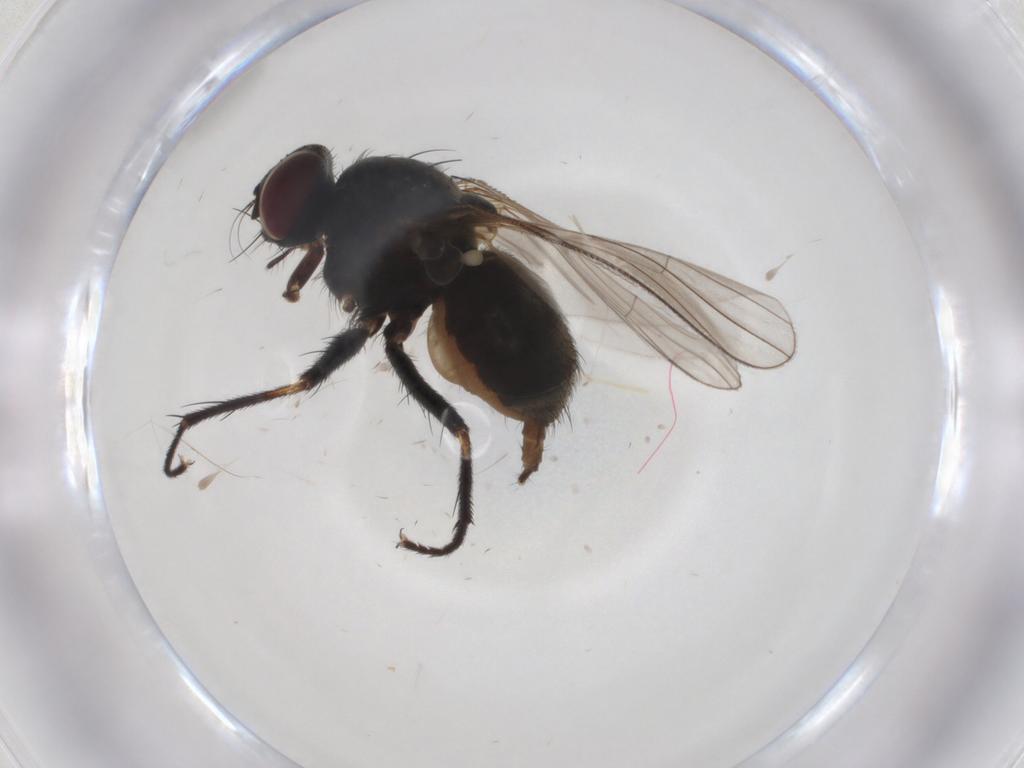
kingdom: Animalia
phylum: Arthropoda
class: Insecta
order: Diptera
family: Muscidae
